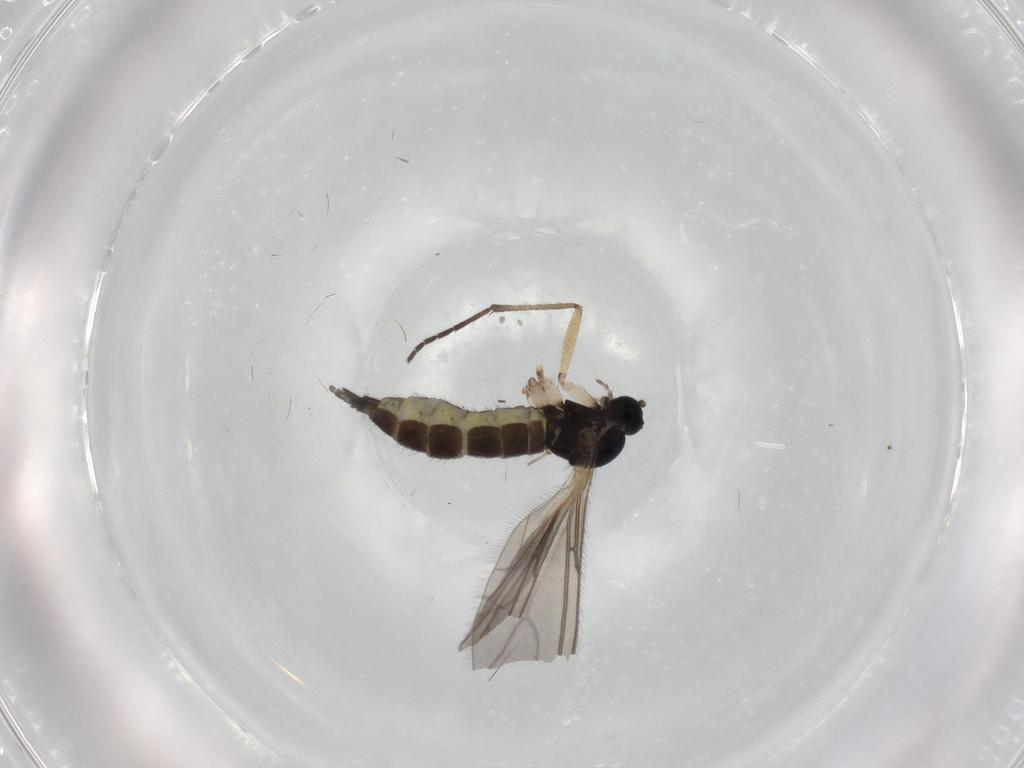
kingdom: Animalia
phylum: Arthropoda
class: Insecta
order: Diptera
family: Sciaridae
